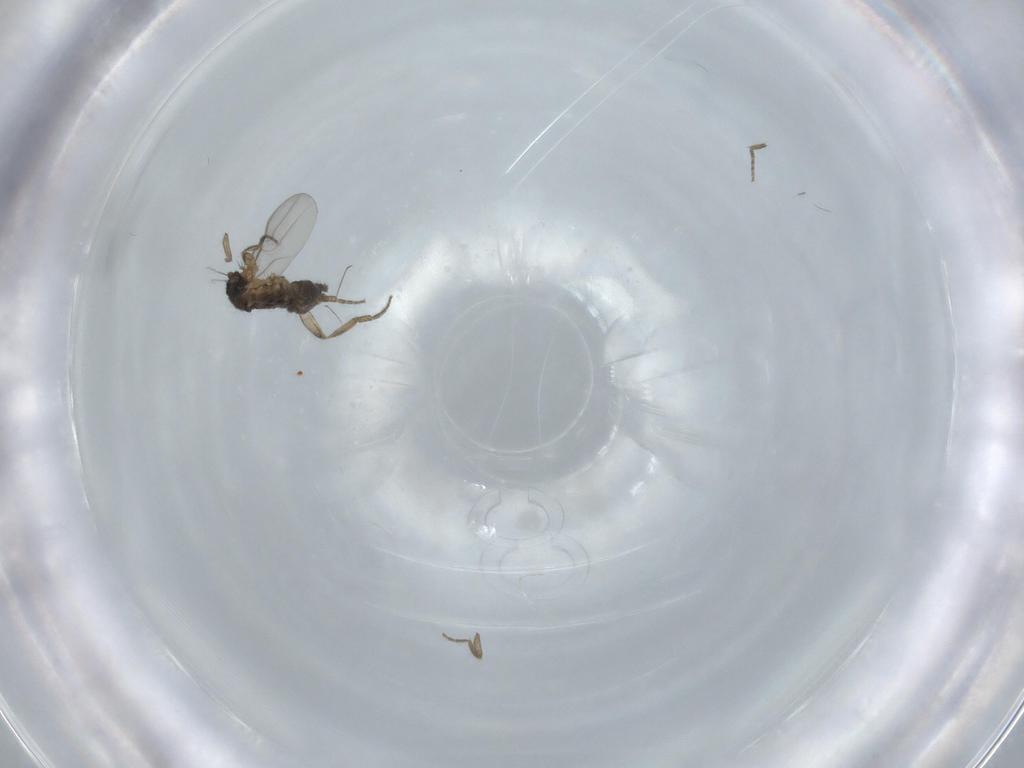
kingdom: Animalia
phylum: Arthropoda
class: Insecta
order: Diptera
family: Phoridae
